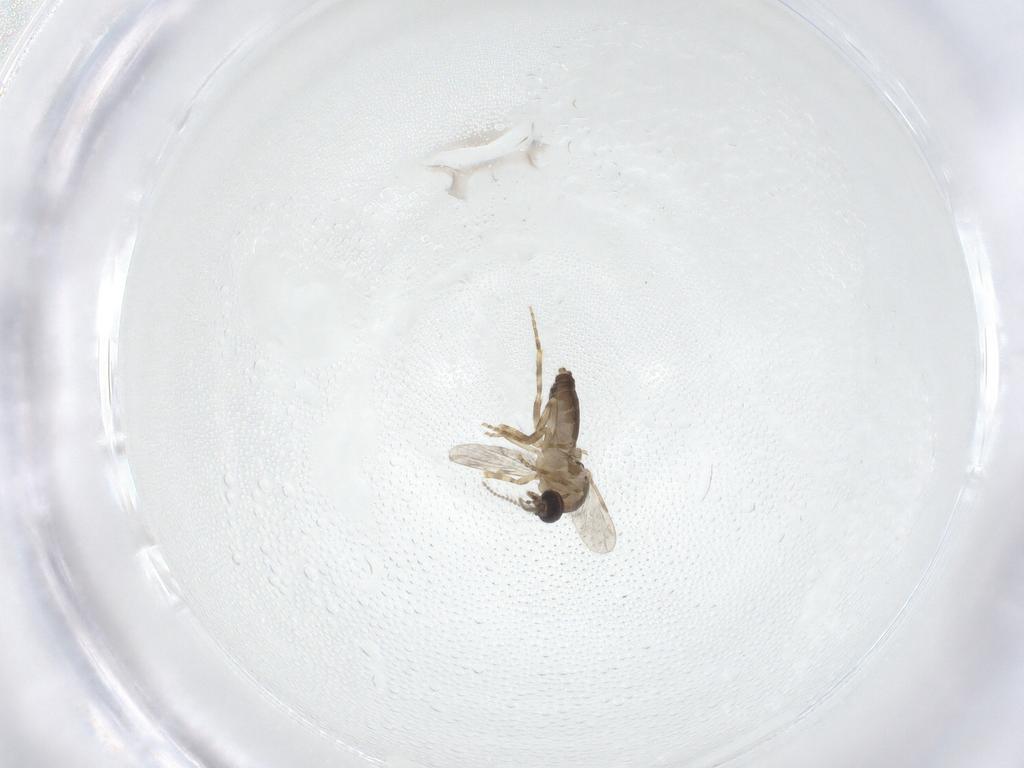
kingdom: Animalia
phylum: Arthropoda
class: Insecta
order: Diptera
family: Ceratopogonidae
